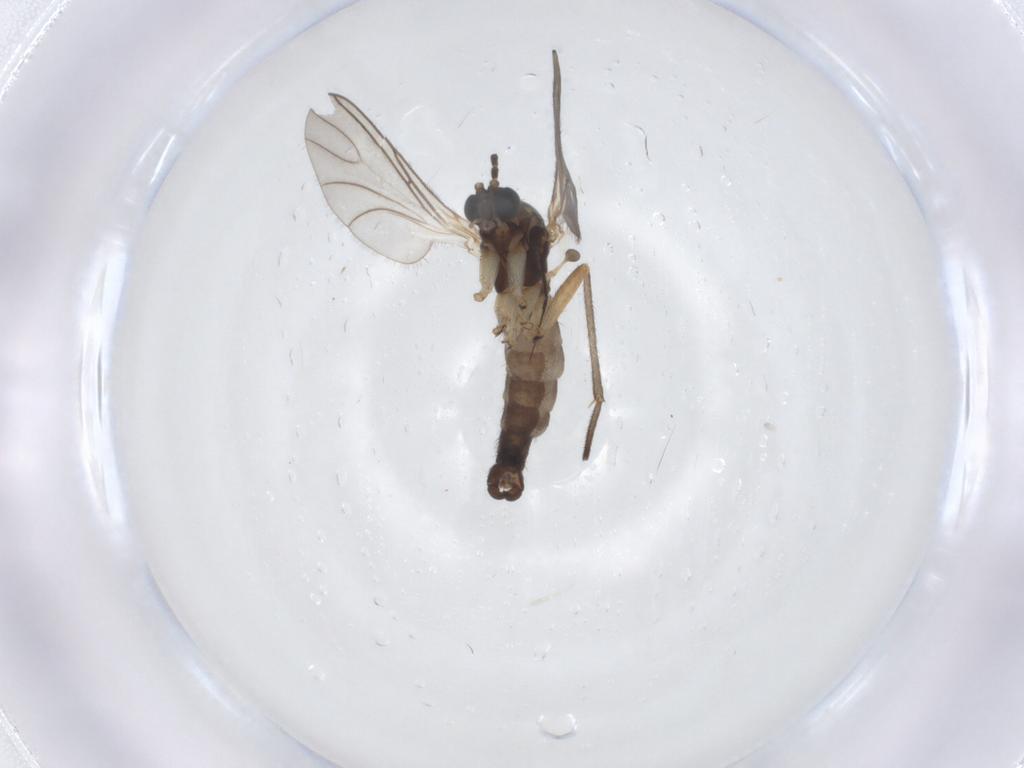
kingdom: Animalia
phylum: Arthropoda
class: Insecta
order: Diptera
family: Sciaridae
